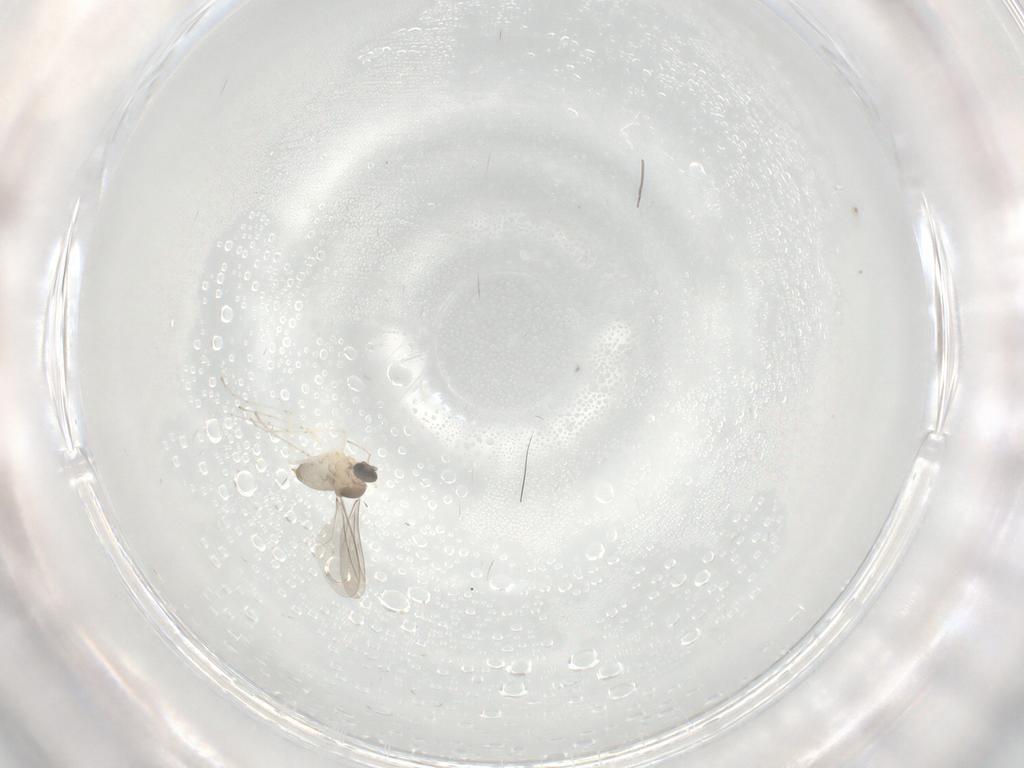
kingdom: Animalia
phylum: Arthropoda
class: Insecta
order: Diptera
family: Cecidomyiidae
